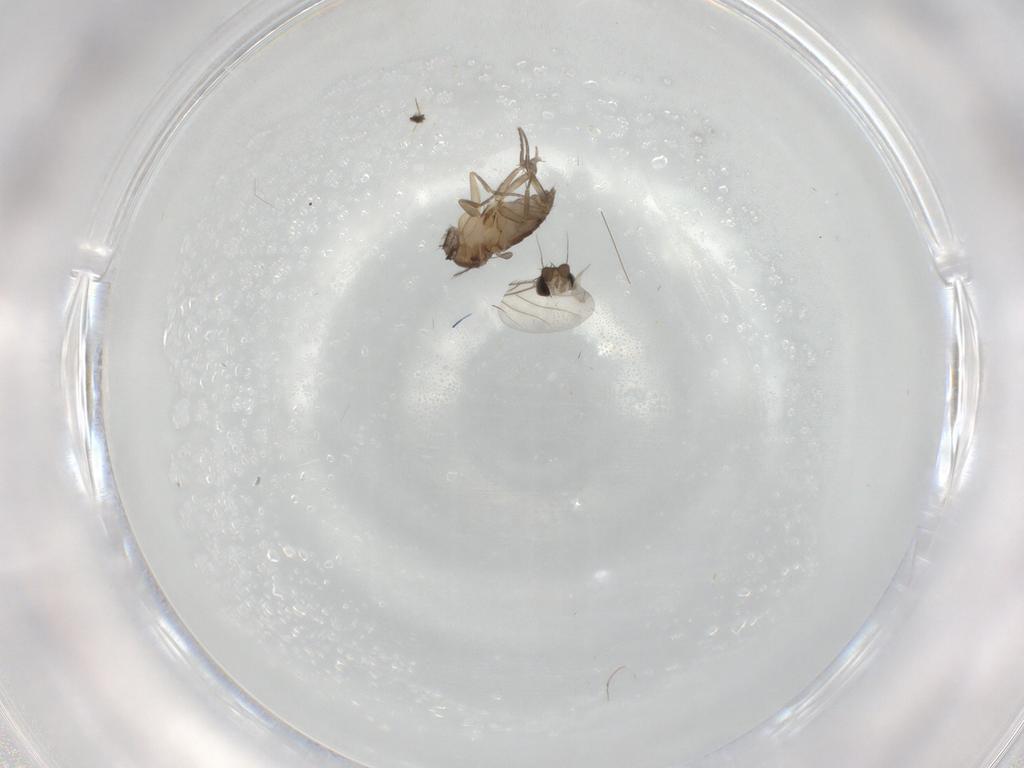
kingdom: Animalia
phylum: Arthropoda
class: Insecta
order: Diptera
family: Phoridae
